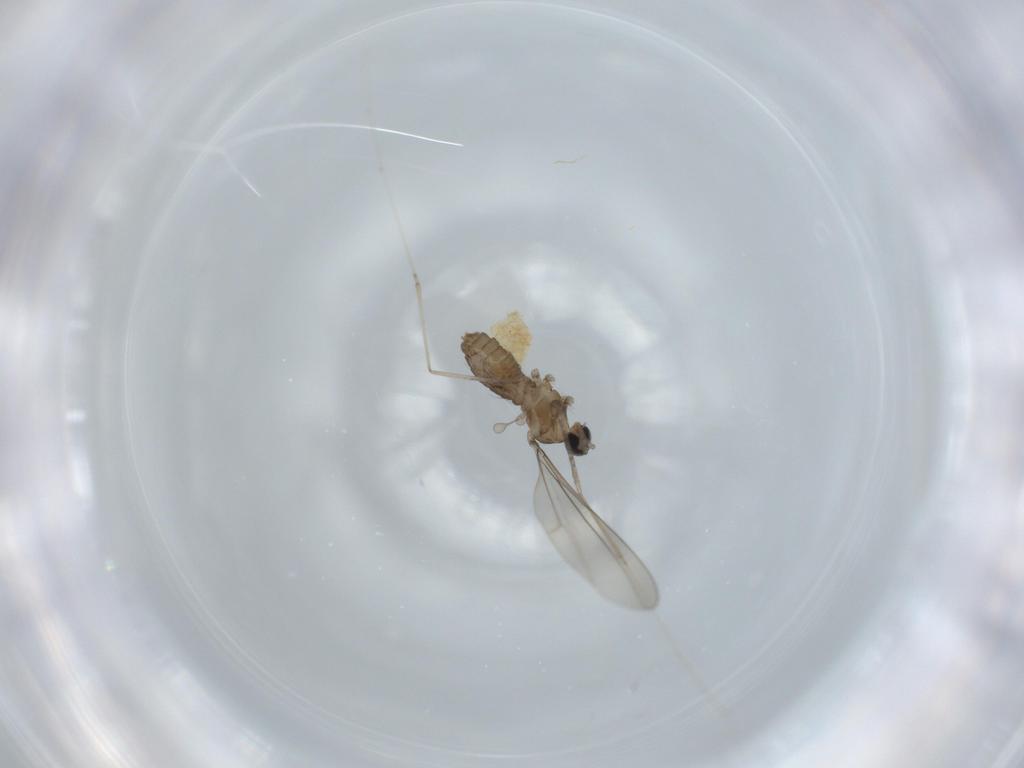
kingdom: Animalia
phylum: Arthropoda
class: Insecta
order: Diptera
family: Cecidomyiidae
